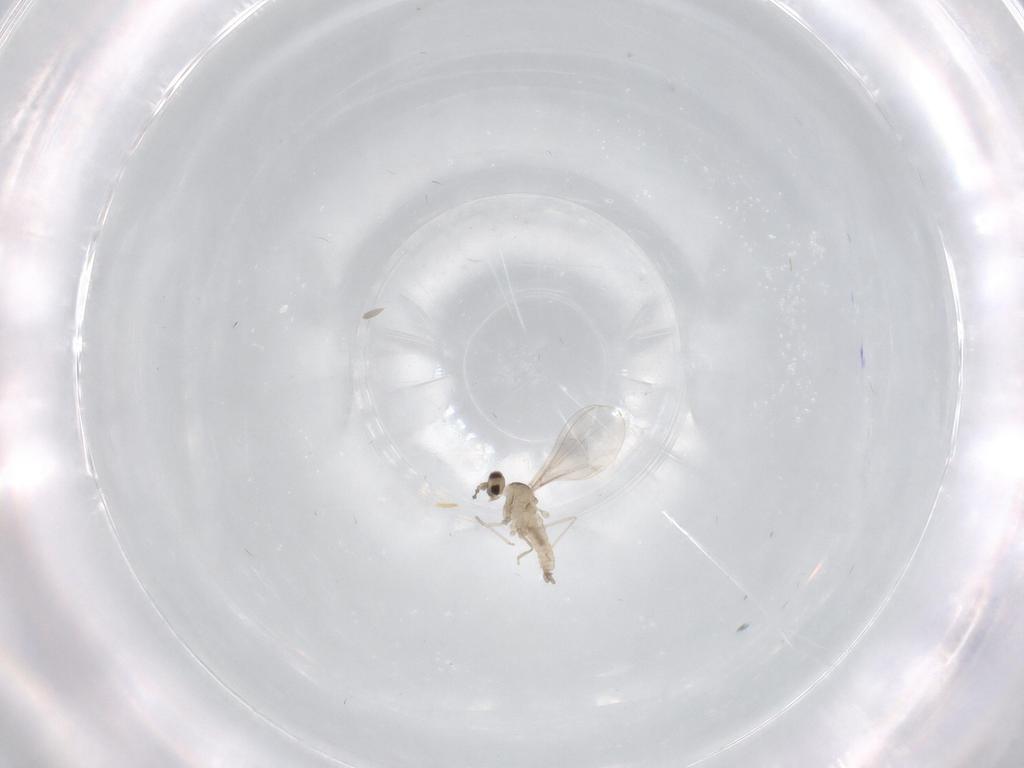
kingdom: Animalia
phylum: Arthropoda
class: Insecta
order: Diptera
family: Cecidomyiidae
